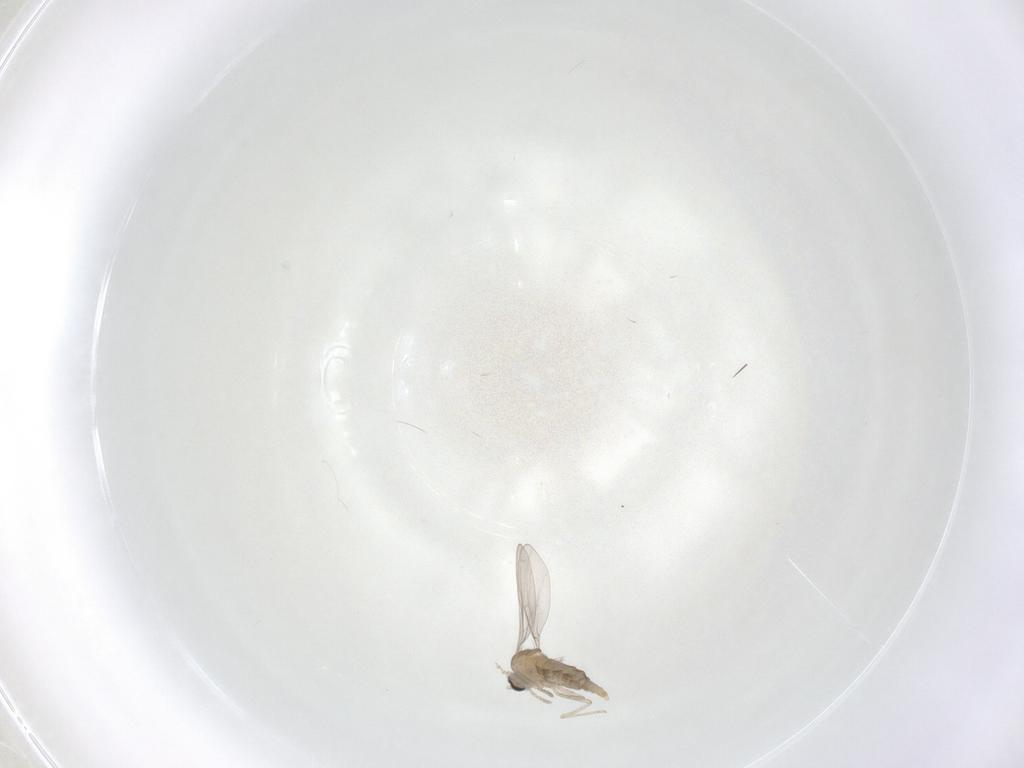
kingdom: Animalia
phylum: Arthropoda
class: Insecta
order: Diptera
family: Cecidomyiidae
